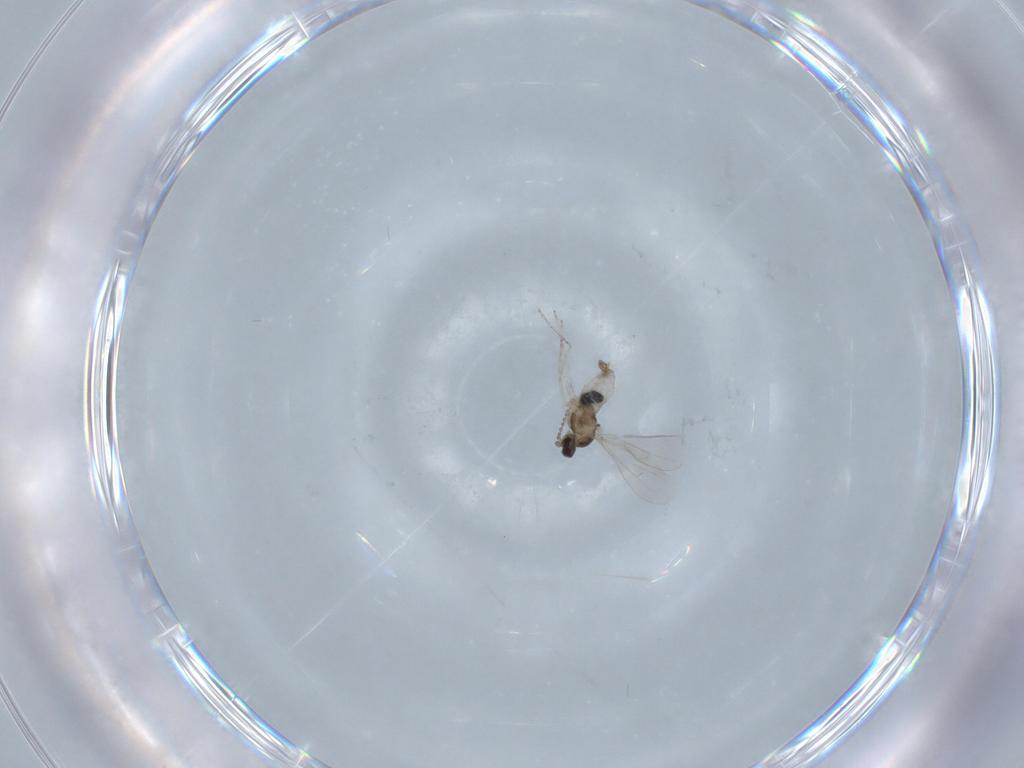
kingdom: Animalia
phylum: Arthropoda
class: Insecta
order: Diptera
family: Cecidomyiidae
